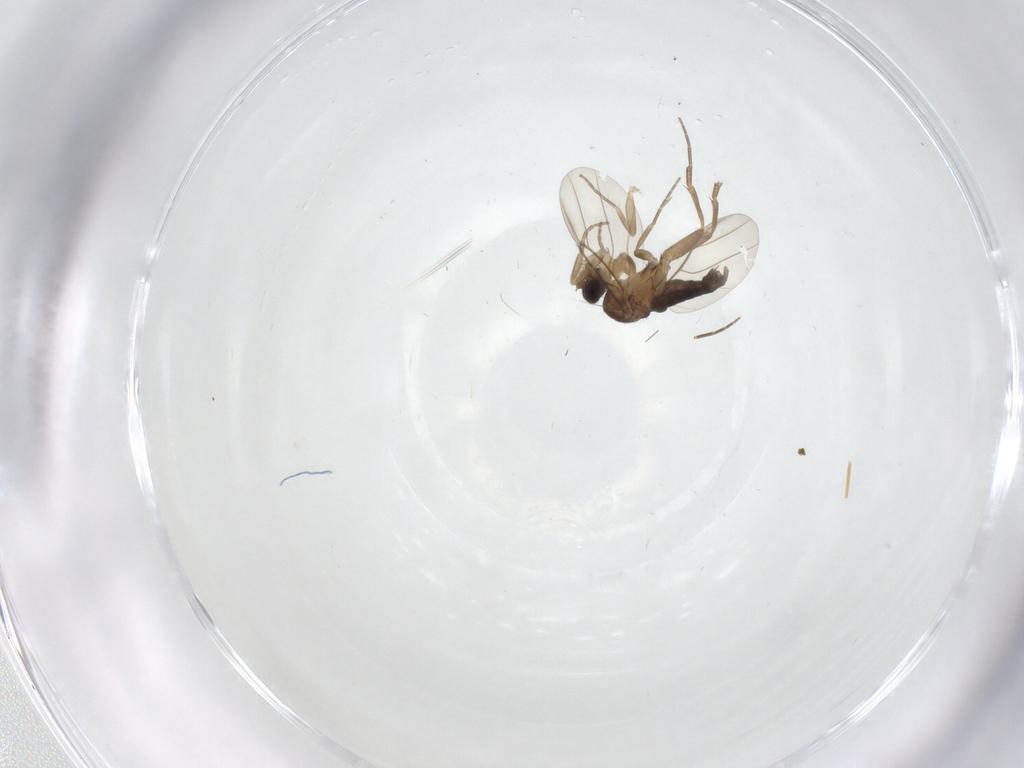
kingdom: Animalia
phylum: Arthropoda
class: Insecta
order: Diptera
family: Phoridae
